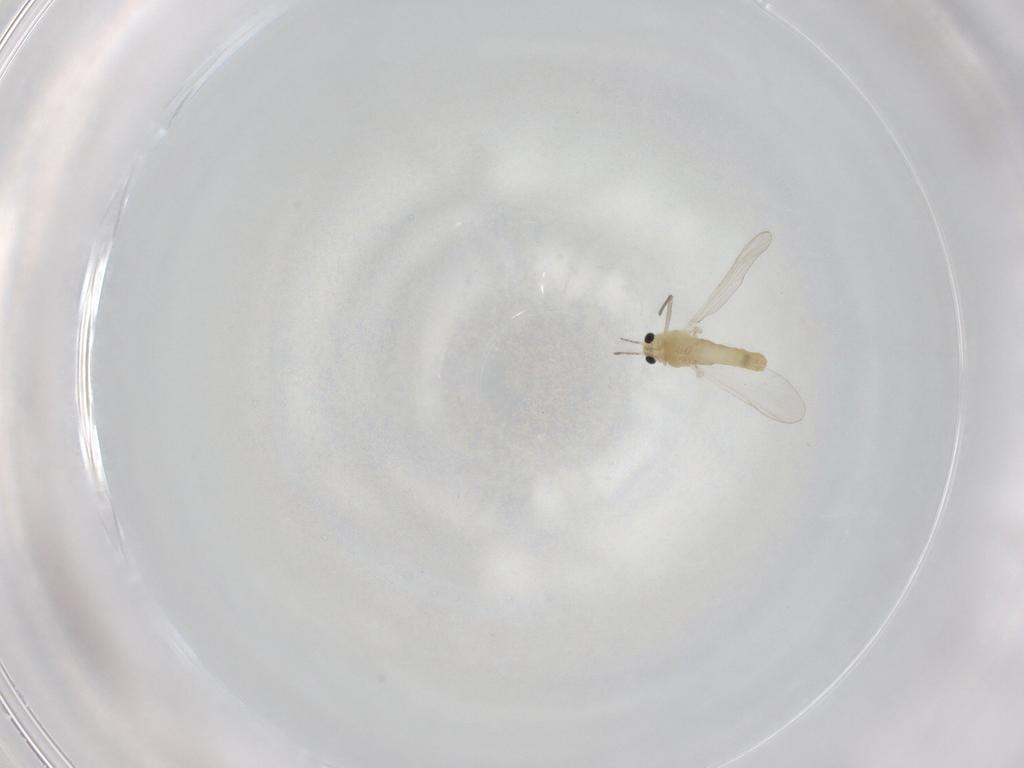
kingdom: Animalia
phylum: Arthropoda
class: Insecta
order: Diptera
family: Chironomidae
